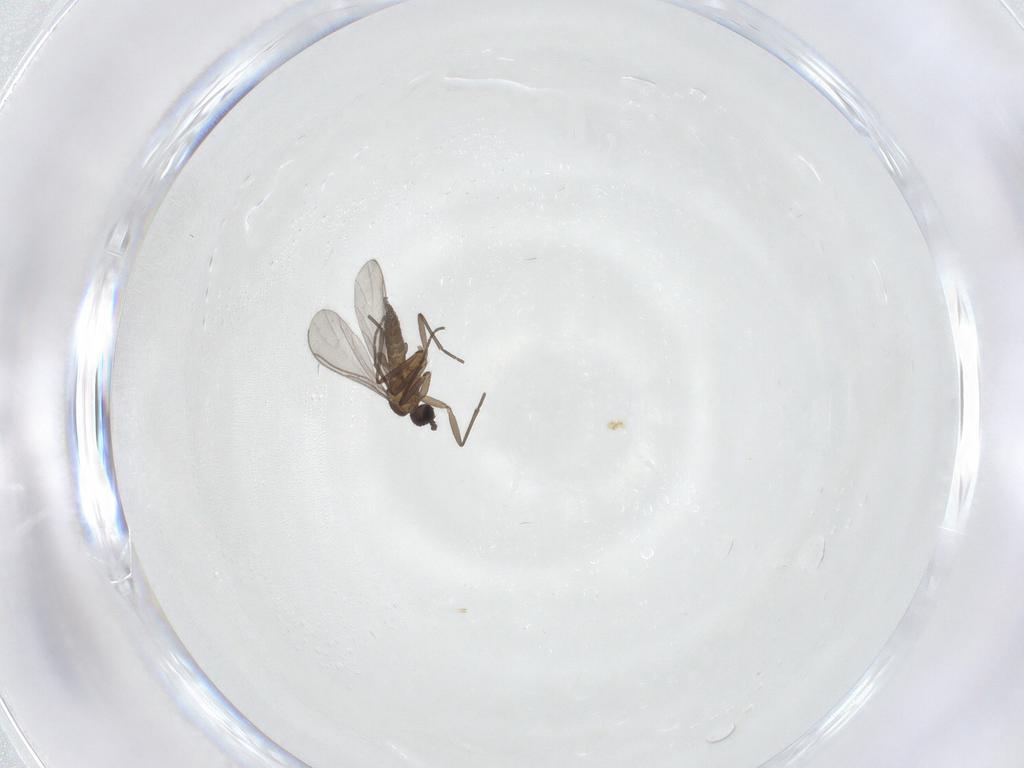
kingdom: Animalia
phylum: Arthropoda
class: Insecta
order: Diptera
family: Sciaridae
